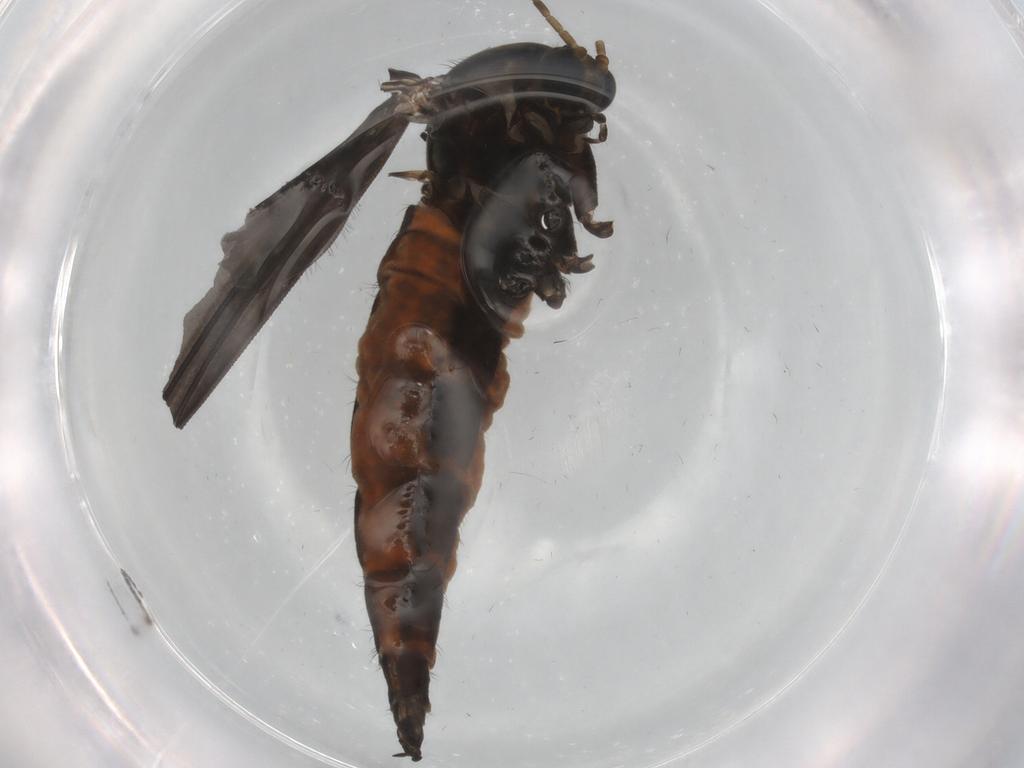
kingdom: Animalia
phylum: Arthropoda
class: Insecta
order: Diptera
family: Sciaridae
